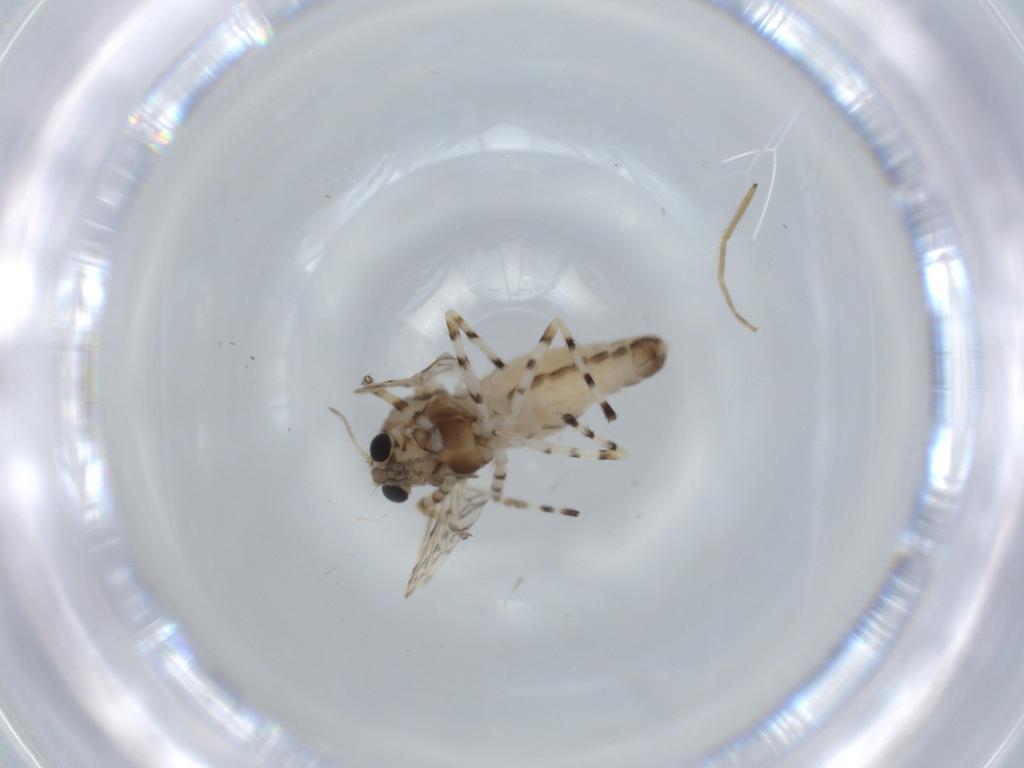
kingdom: Animalia
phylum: Arthropoda
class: Insecta
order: Diptera
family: Chironomidae
